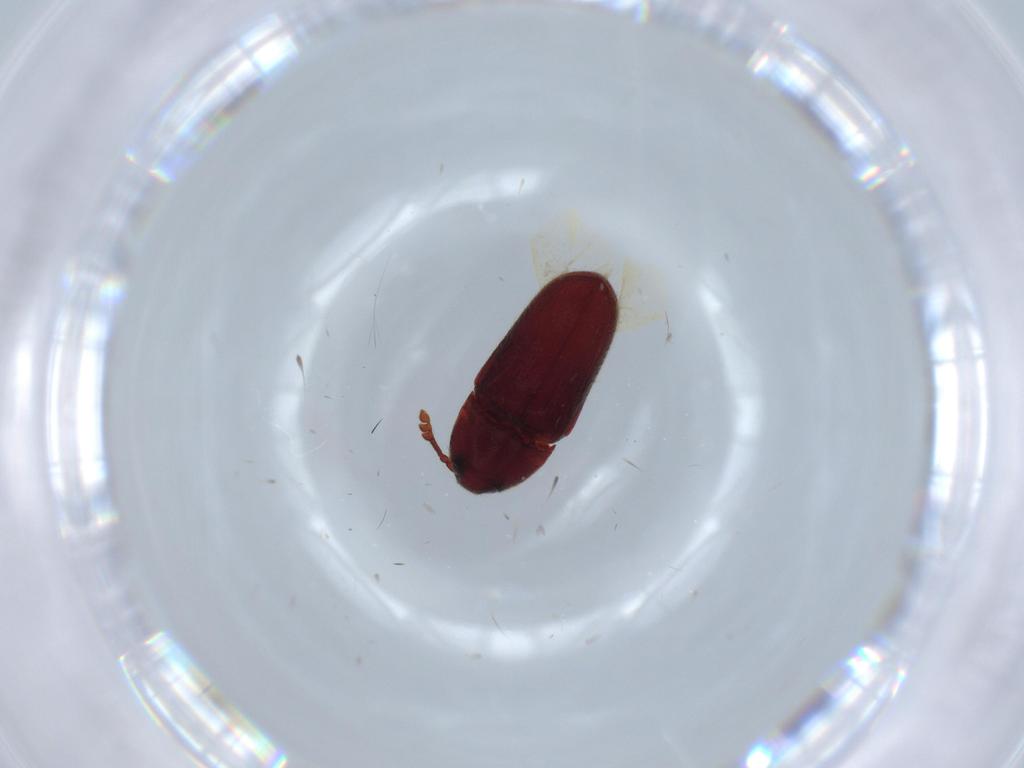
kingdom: Animalia
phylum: Arthropoda
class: Insecta
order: Coleoptera
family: Throscidae
